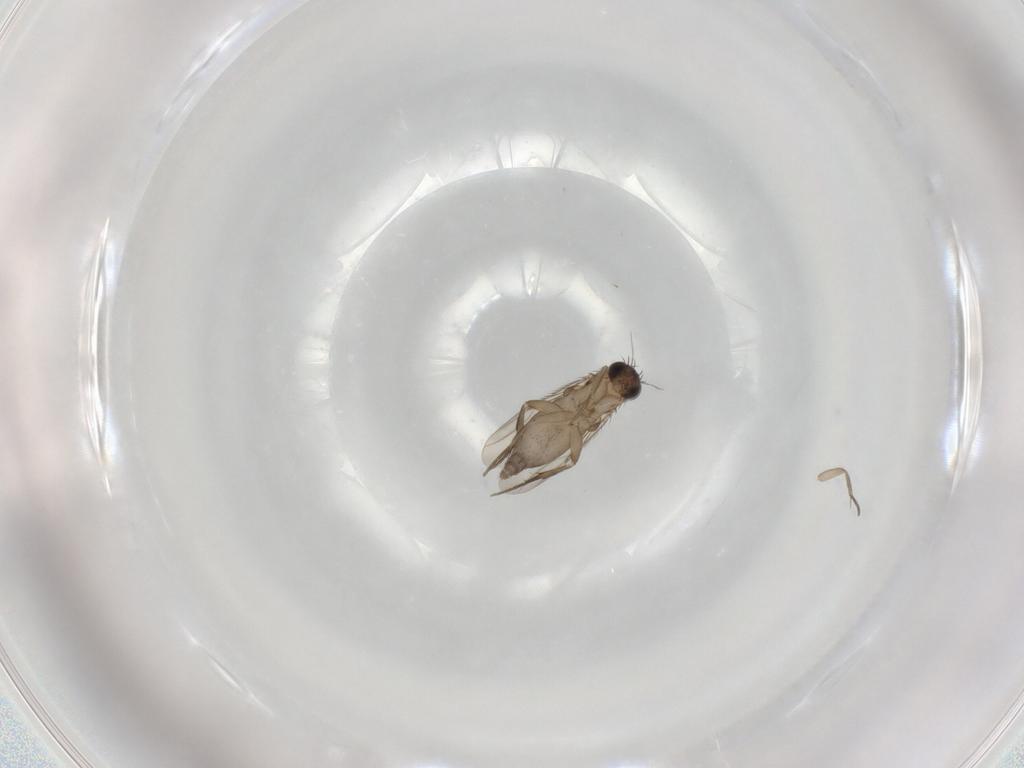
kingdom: Animalia
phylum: Arthropoda
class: Insecta
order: Diptera
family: Phoridae
